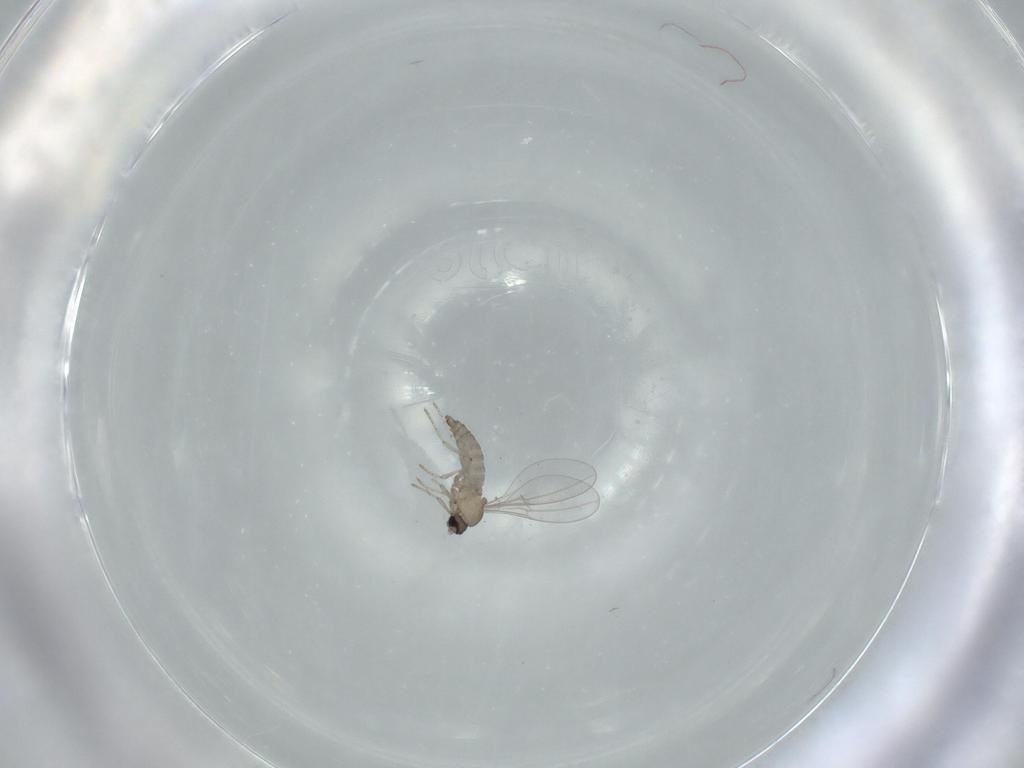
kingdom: Animalia
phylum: Arthropoda
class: Insecta
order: Diptera
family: Cecidomyiidae
